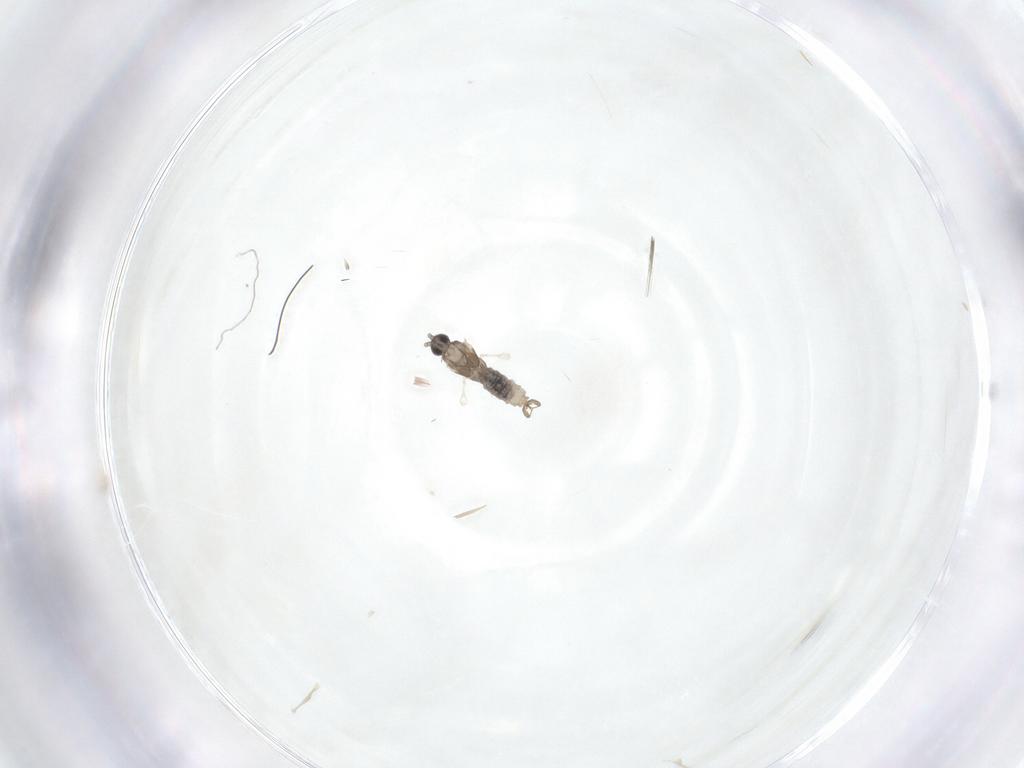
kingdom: Animalia
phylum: Arthropoda
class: Insecta
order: Diptera
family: Cecidomyiidae
